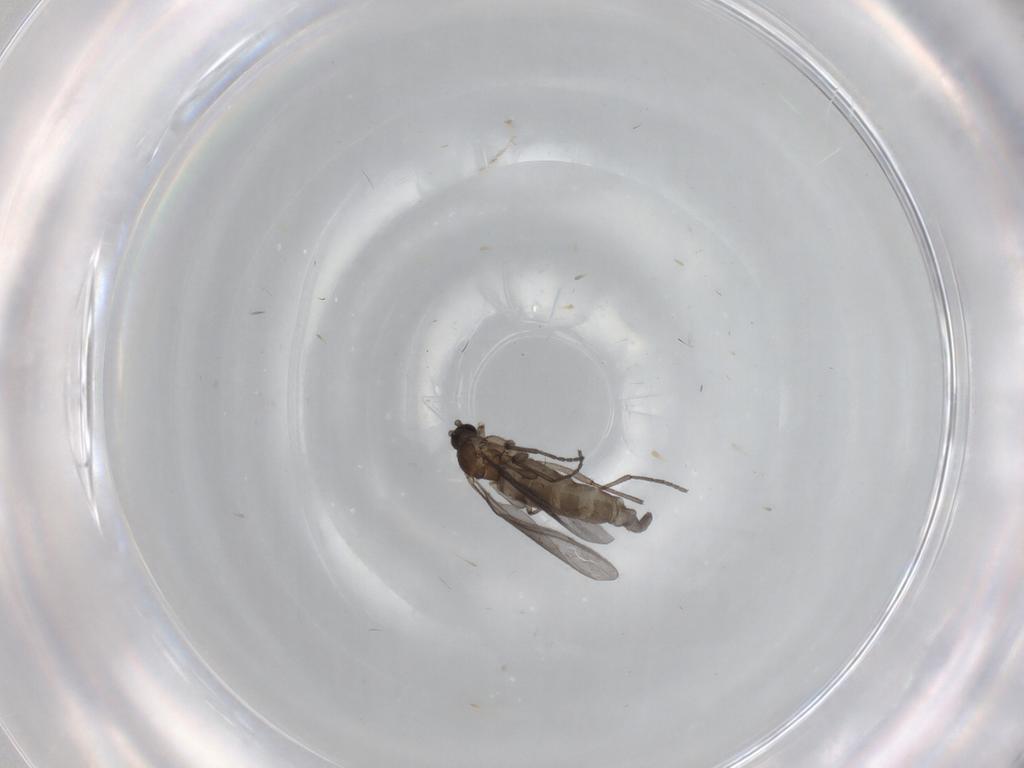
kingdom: Animalia
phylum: Arthropoda
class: Insecta
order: Diptera
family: Sciaridae
